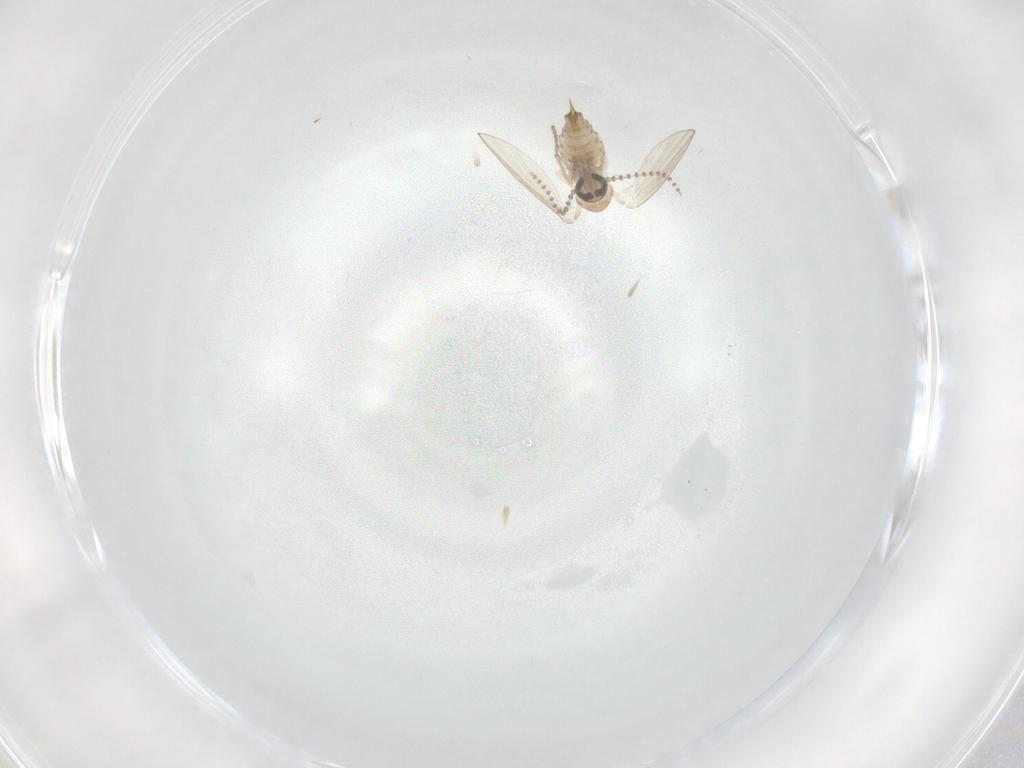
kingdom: Animalia
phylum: Arthropoda
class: Insecta
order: Diptera
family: Psychodidae
